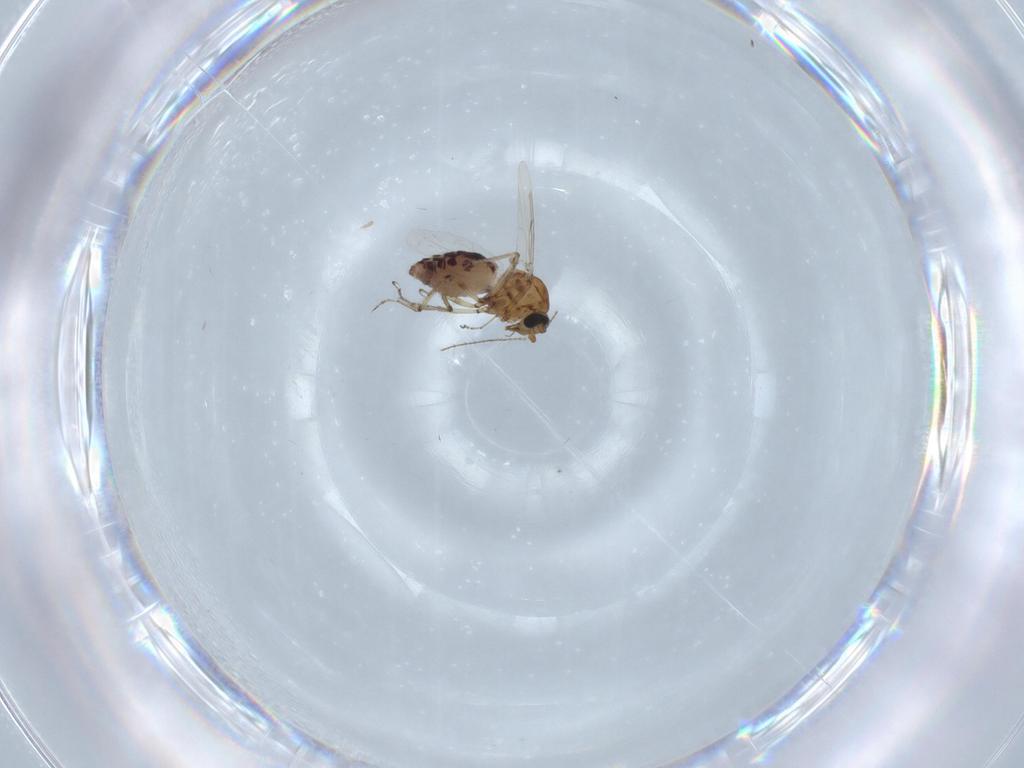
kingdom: Animalia
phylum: Arthropoda
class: Insecta
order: Diptera
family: Ceratopogonidae
